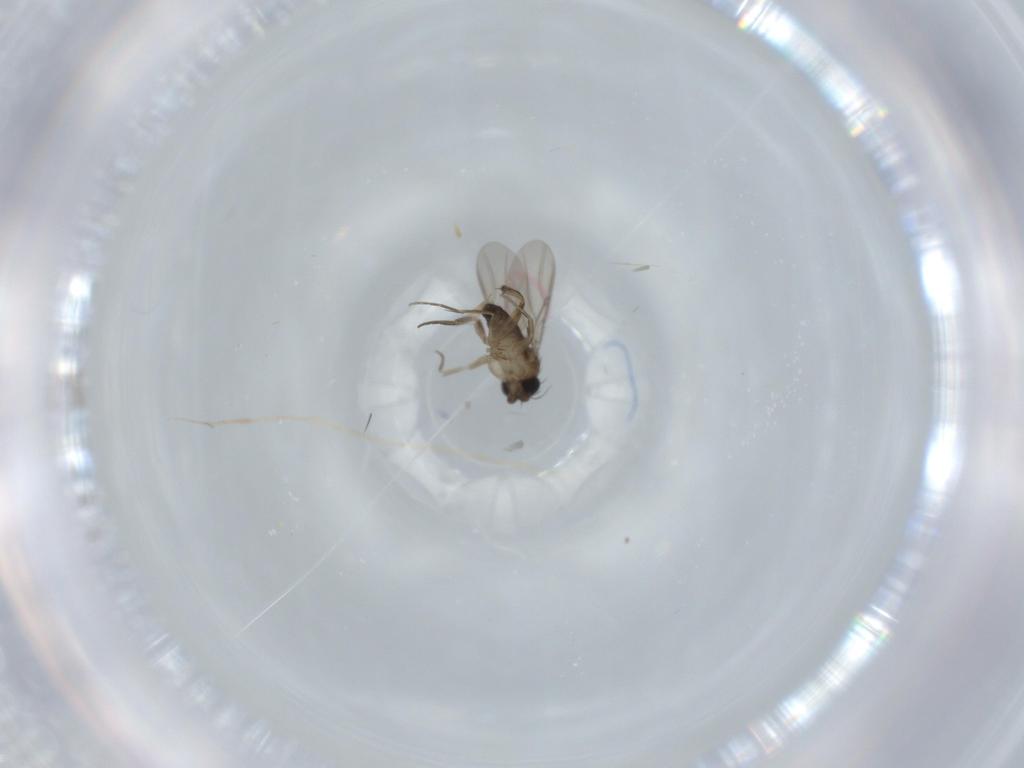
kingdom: Animalia
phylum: Arthropoda
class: Insecta
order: Diptera
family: Phoridae
